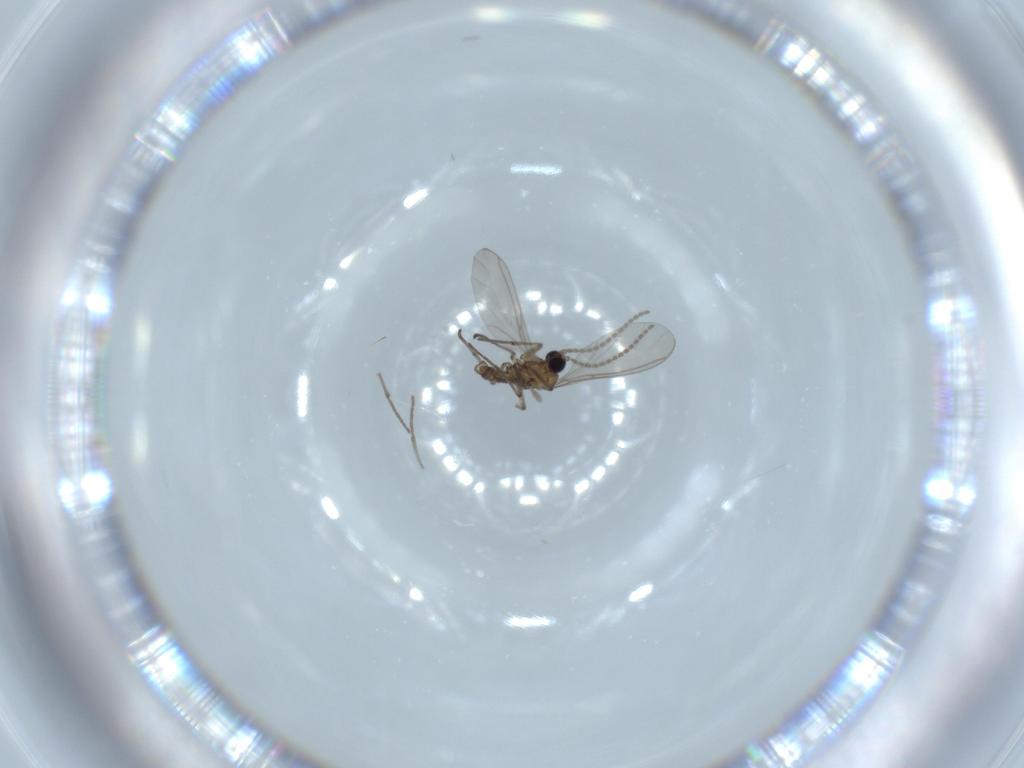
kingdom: Animalia
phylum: Arthropoda
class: Insecta
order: Diptera
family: Sciaridae
